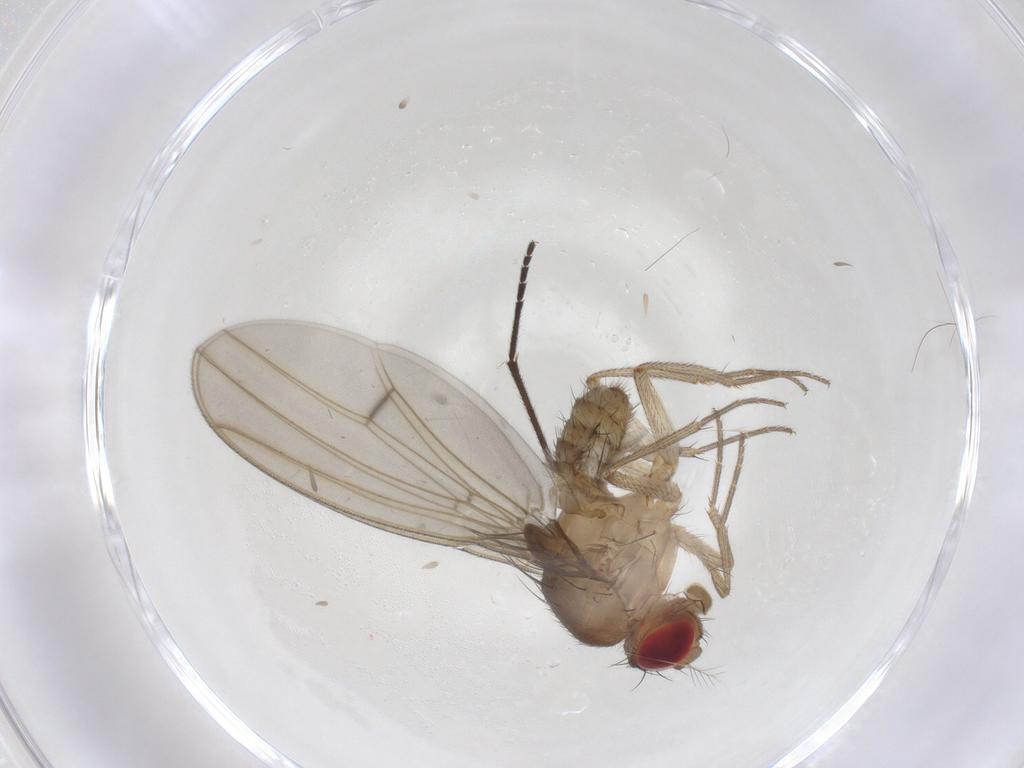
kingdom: Animalia
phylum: Arthropoda
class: Insecta
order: Diptera
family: Drosophilidae
